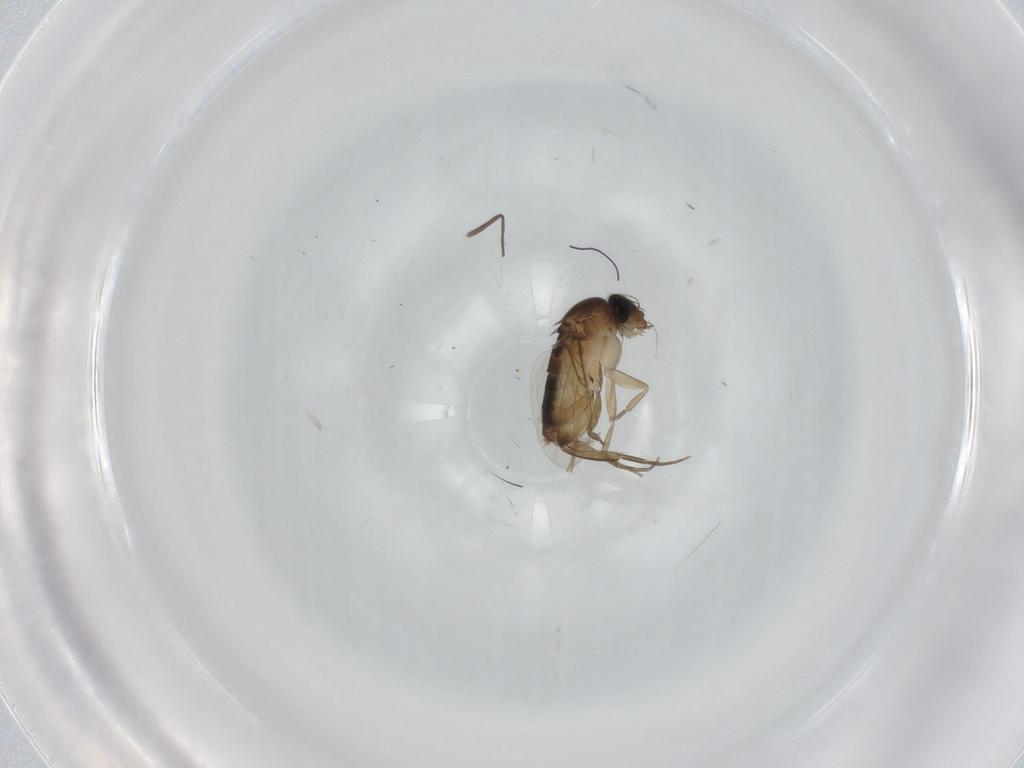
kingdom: Animalia
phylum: Arthropoda
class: Insecta
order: Diptera
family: Phoridae
